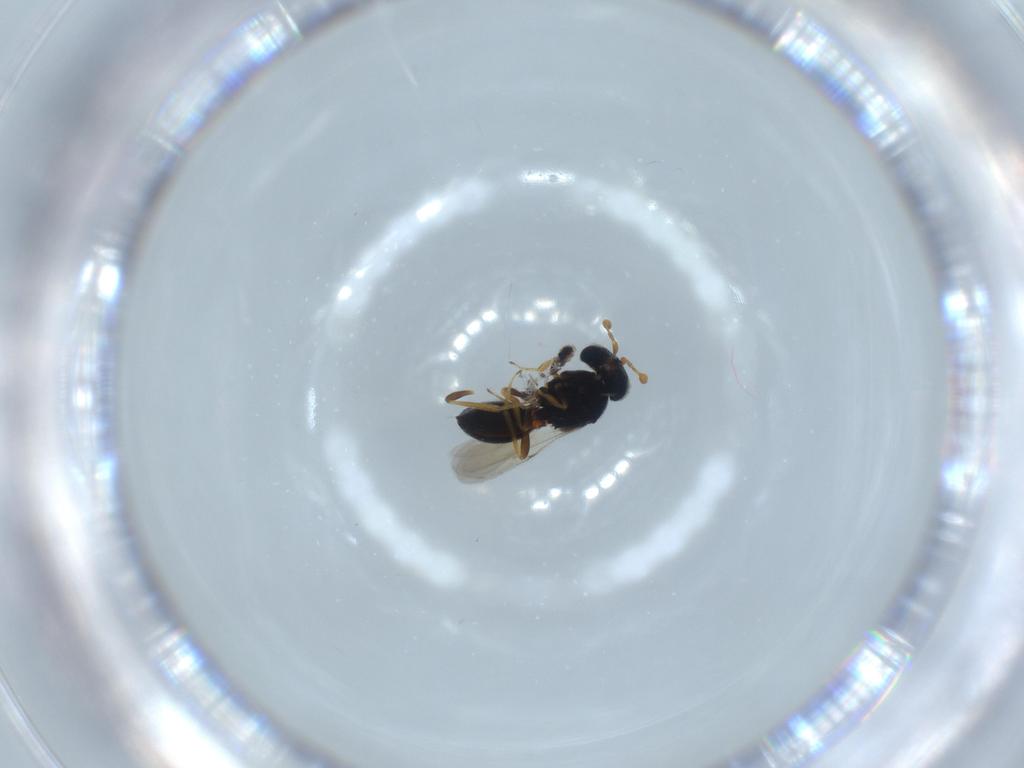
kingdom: Animalia
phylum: Arthropoda
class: Insecta
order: Hymenoptera
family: Scelionidae
